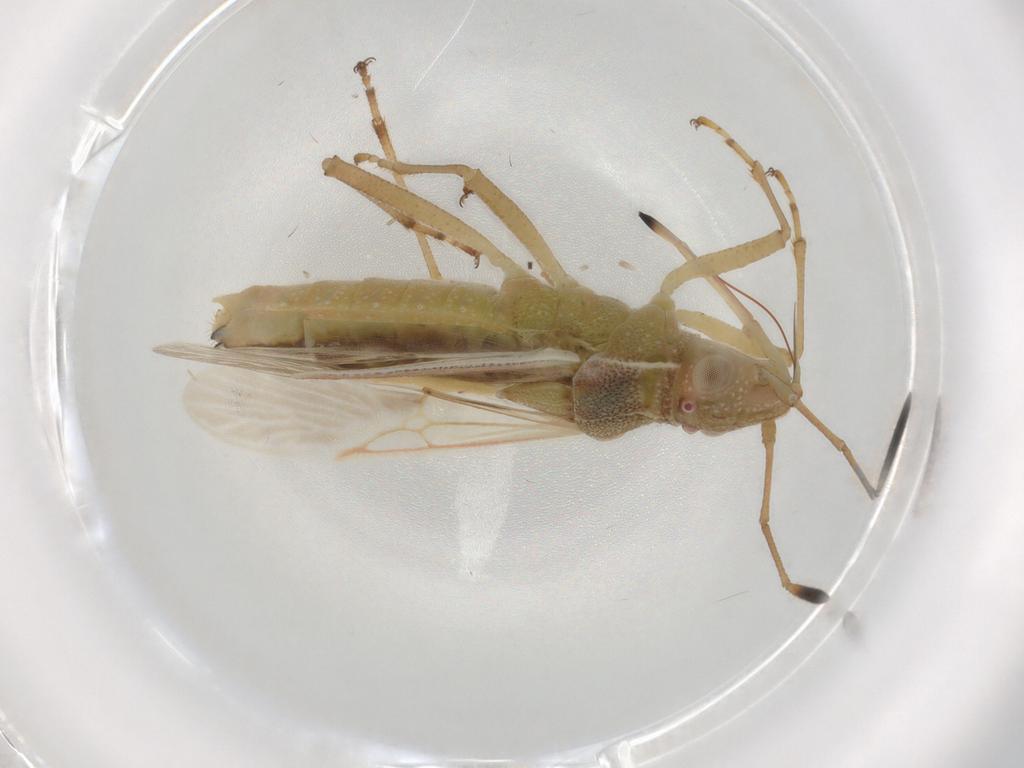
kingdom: Animalia
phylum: Arthropoda
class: Insecta
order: Hemiptera
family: Rhopalidae
